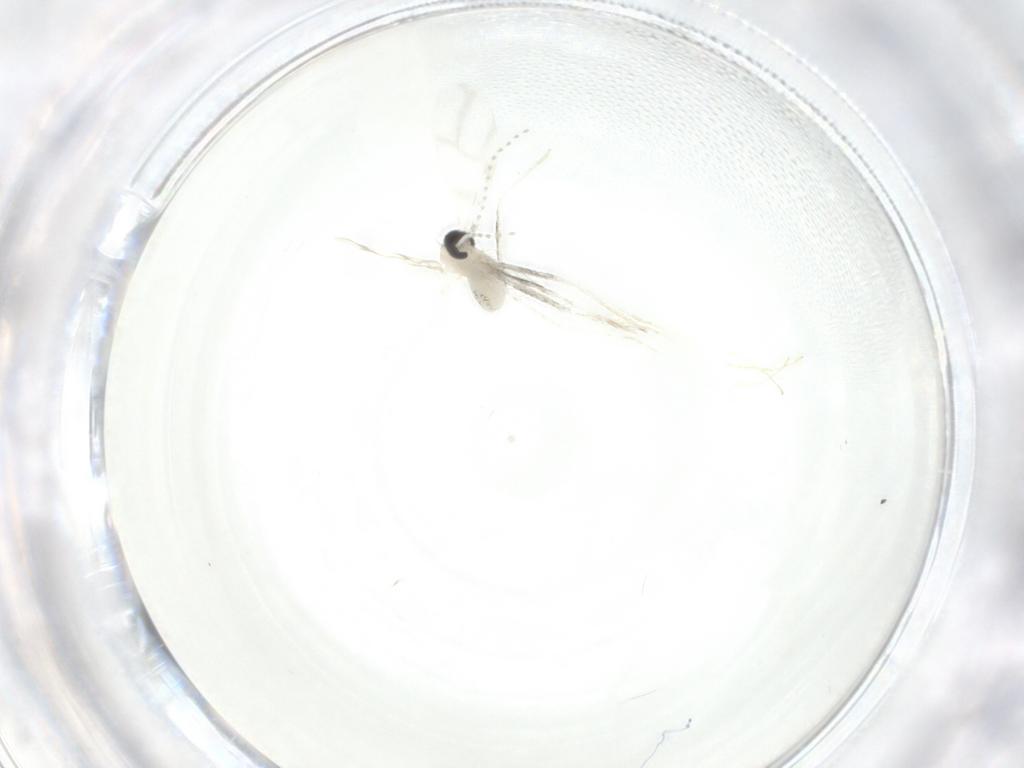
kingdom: Animalia
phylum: Arthropoda
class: Insecta
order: Diptera
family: Cecidomyiidae
